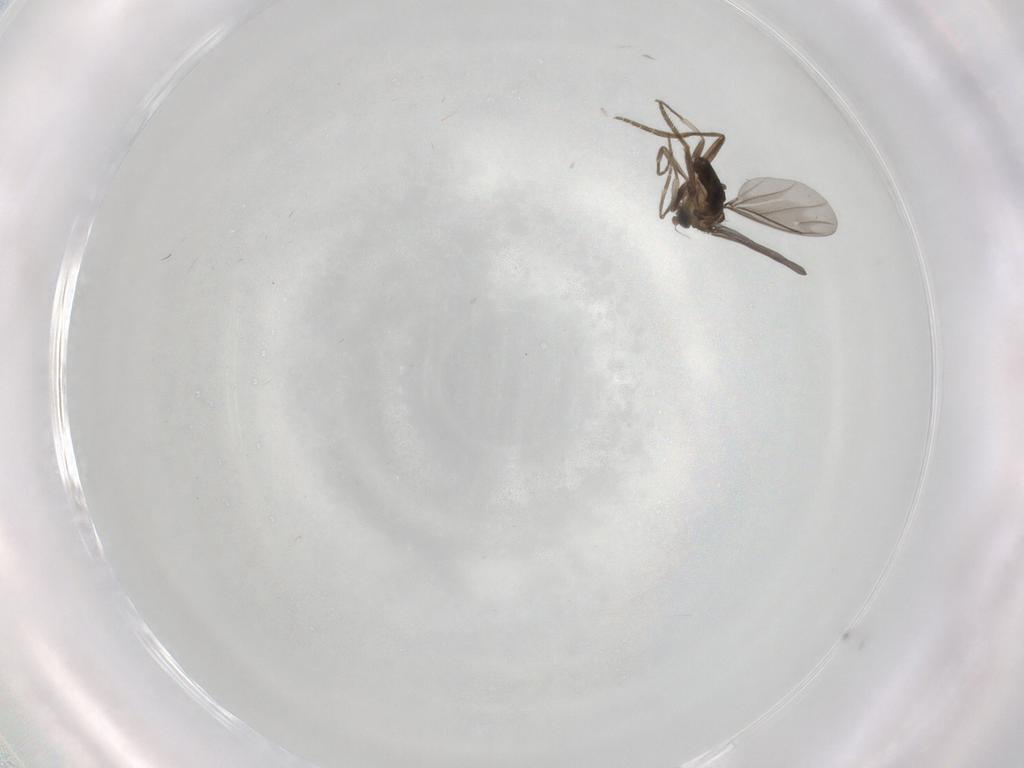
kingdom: Animalia
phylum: Arthropoda
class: Insecta
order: Diptera
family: Phoridae
